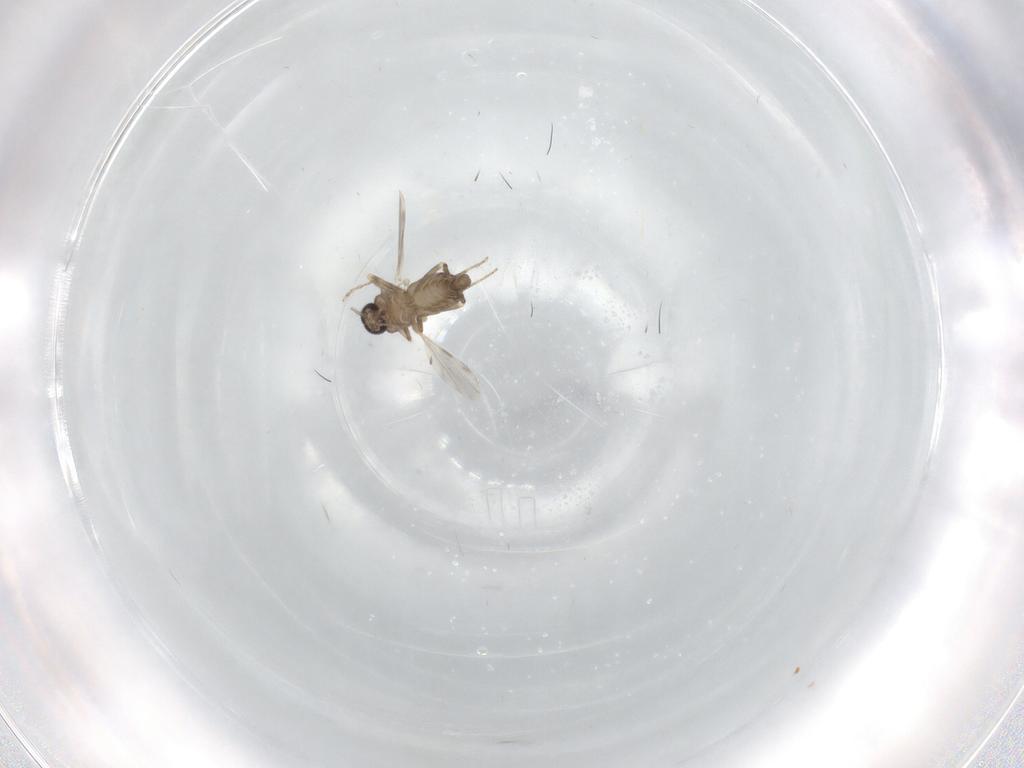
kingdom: Animalia
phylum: Arthropoda
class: Insecta
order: Diptera
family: Ceratopogonidae
